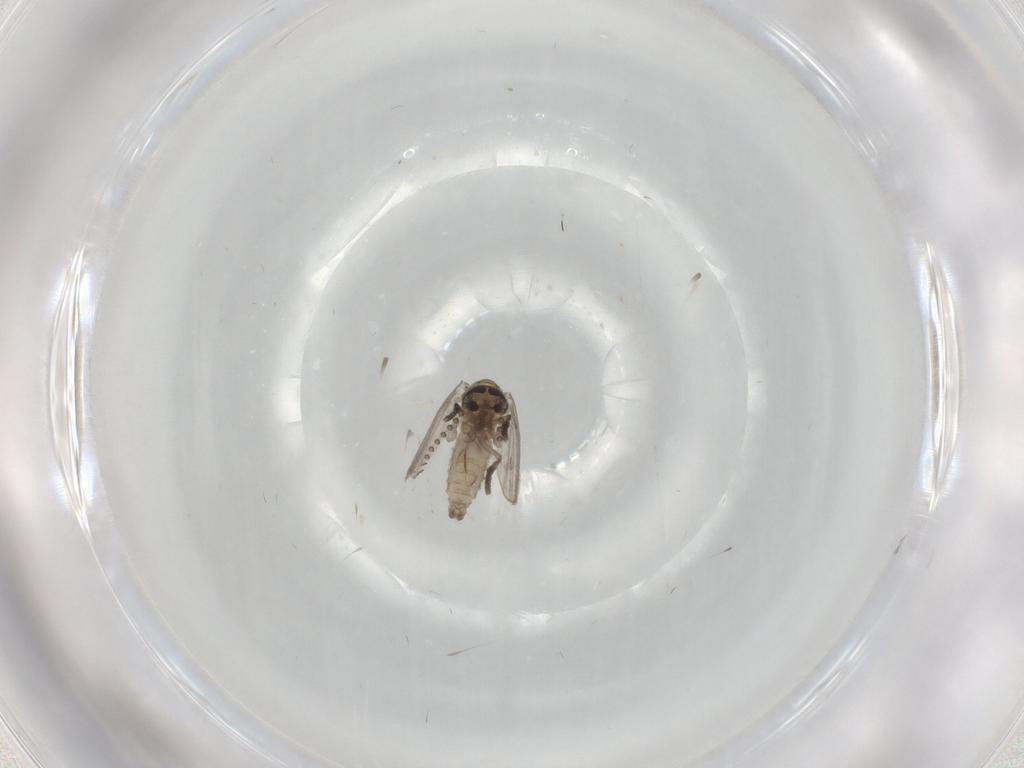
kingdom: Animalia
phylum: Arthropoda
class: Insecta
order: Diptera
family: Psychodidae
